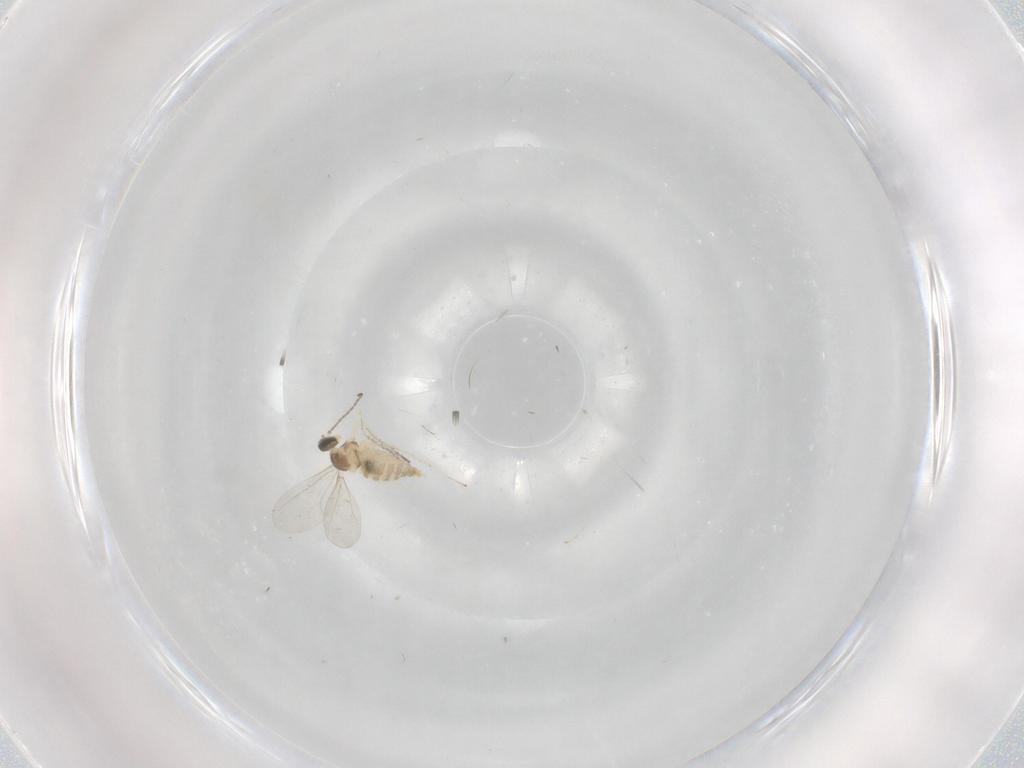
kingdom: Animalia
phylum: Arthropoda
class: Insecta
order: Diptera
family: Cecidomyiidae
